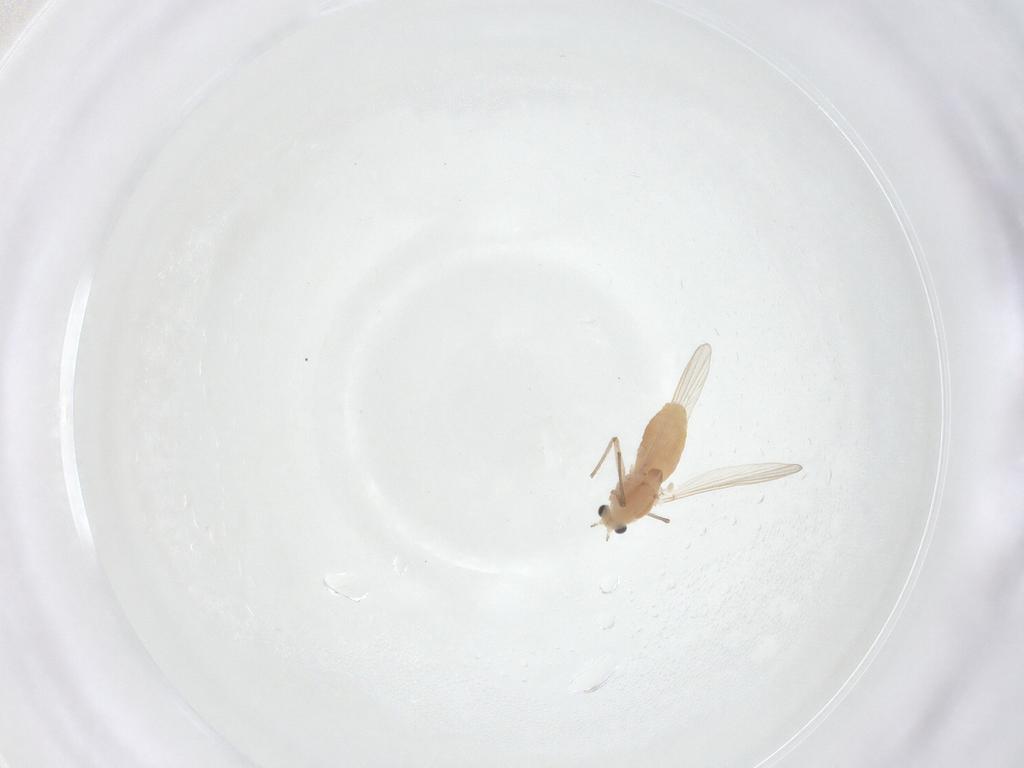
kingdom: Animalia
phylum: Arthropoda
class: Insecta
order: Diptera
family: Chironomidae
